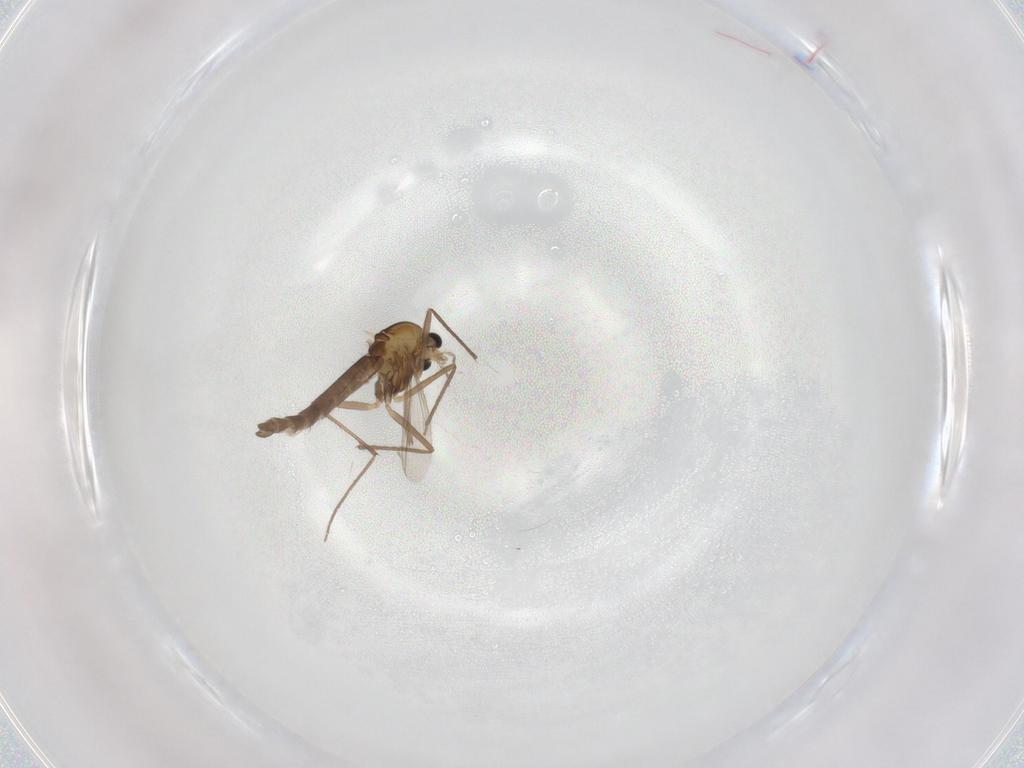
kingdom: Animalia
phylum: Arthropoda
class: Insecta
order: Diptera
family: Chironomidae
